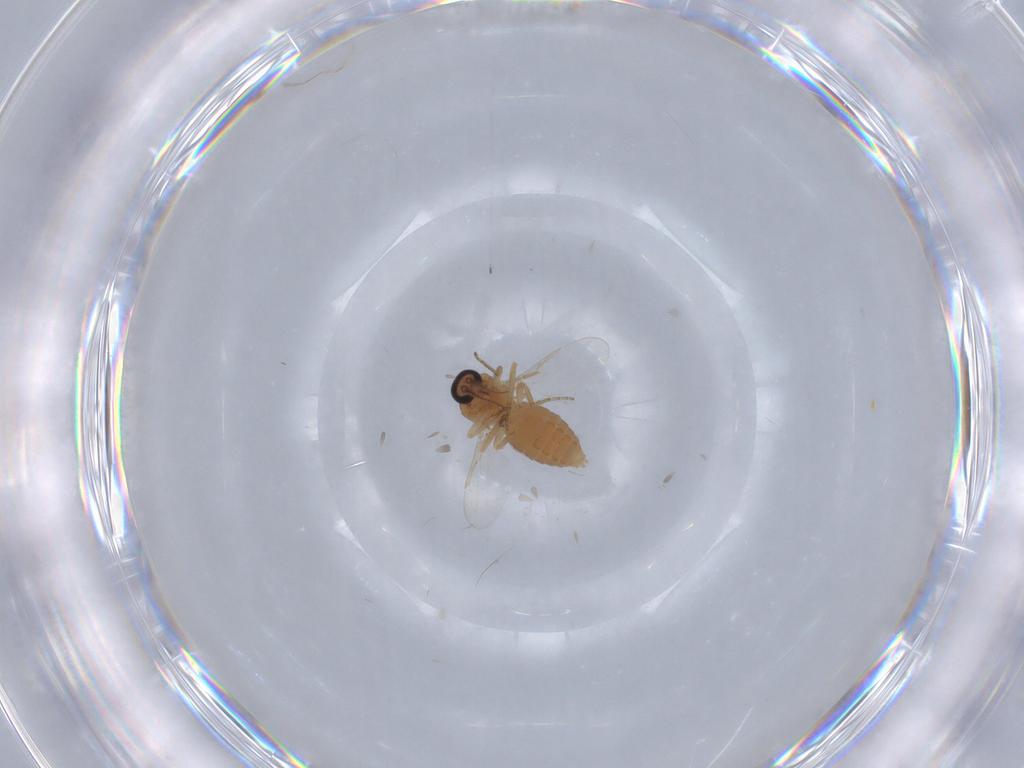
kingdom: Animalia
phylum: Arthropoda
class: Insecta
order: Diptera
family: Ceratopogonidae
